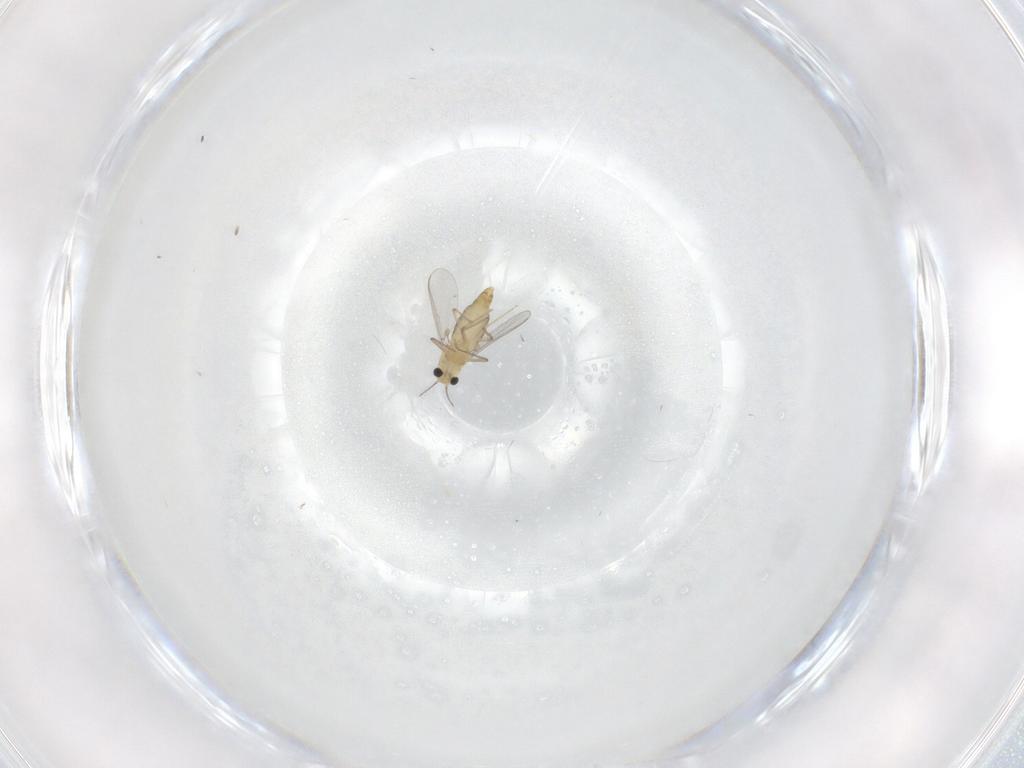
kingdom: Animalia
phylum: Arthropoda
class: Insecta
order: Diptera
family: Chironomidae
